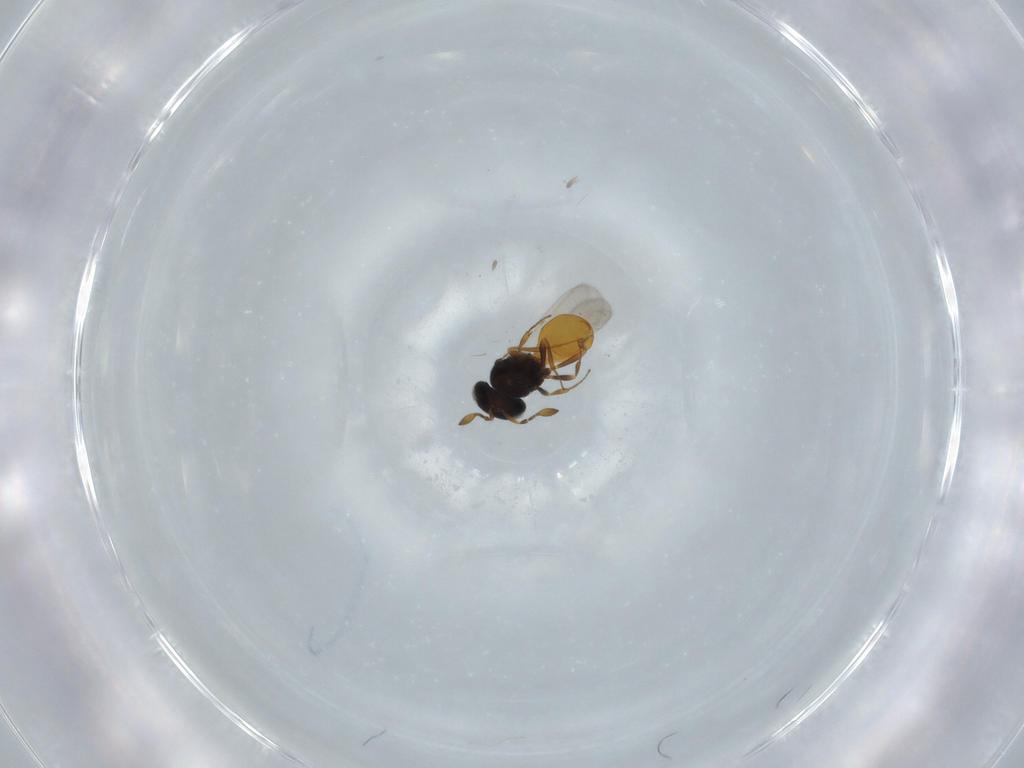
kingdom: Animalia
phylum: Arthropoda
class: Insecta
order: Hymenoptera
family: Scelionidae
